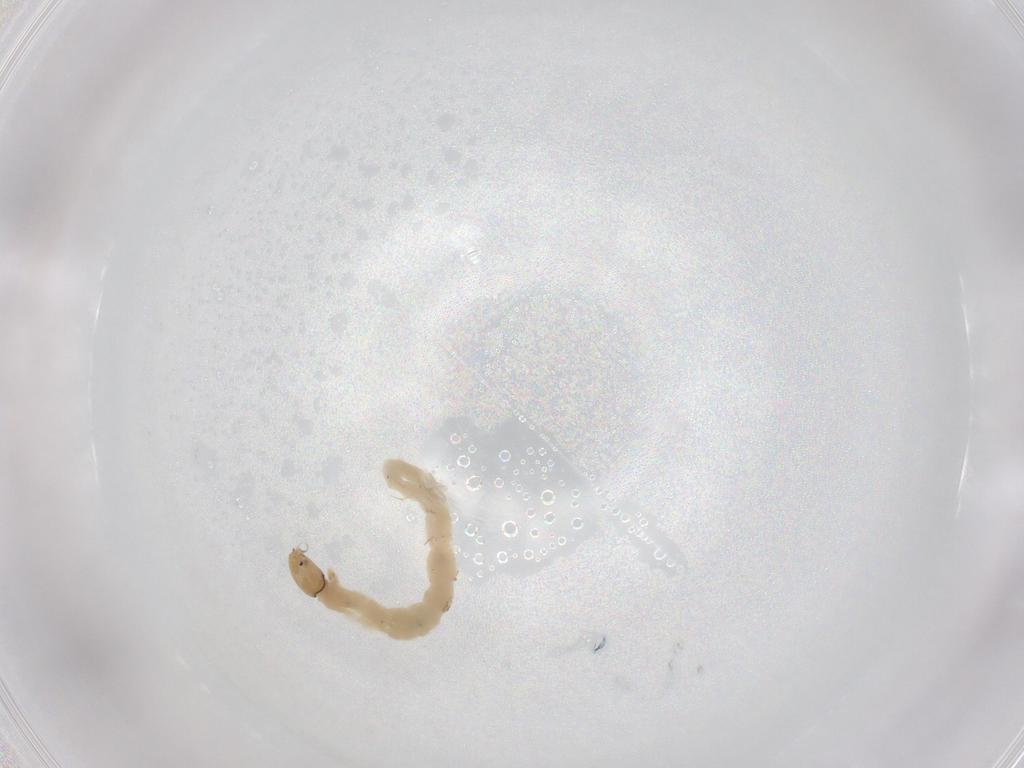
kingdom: Animalia
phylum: Arthropoda
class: Insecta
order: Diptera
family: Chironomidae
